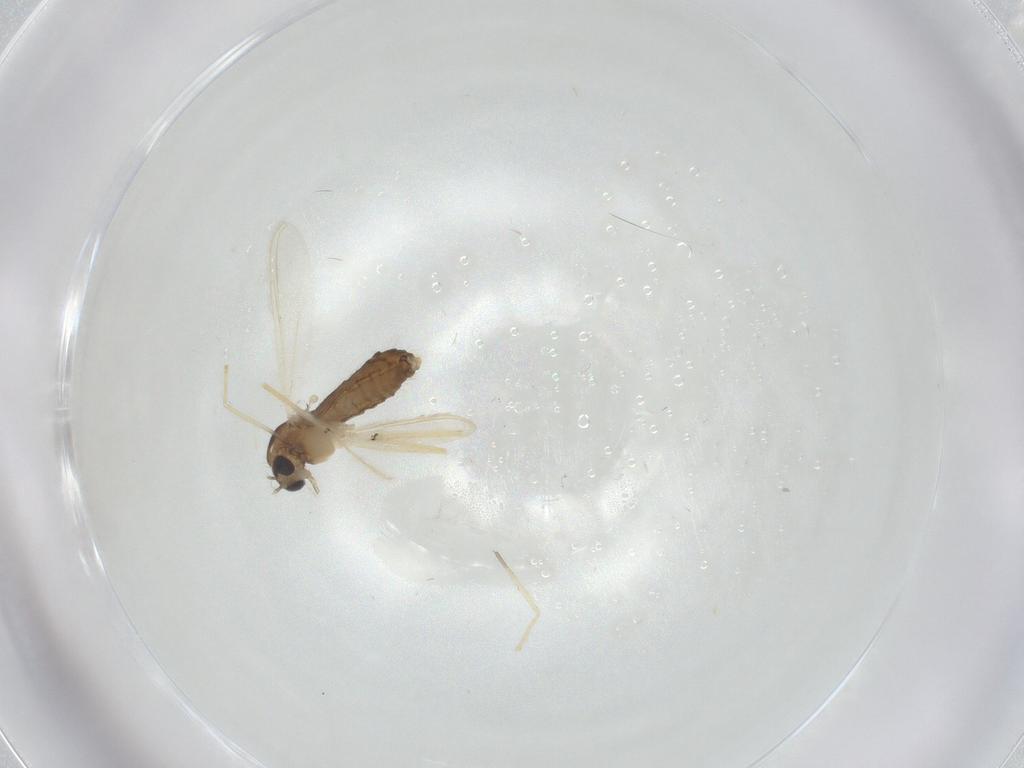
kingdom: Animalia
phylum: Arthropoda
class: Insecta
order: Diptera
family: Chironomidae
